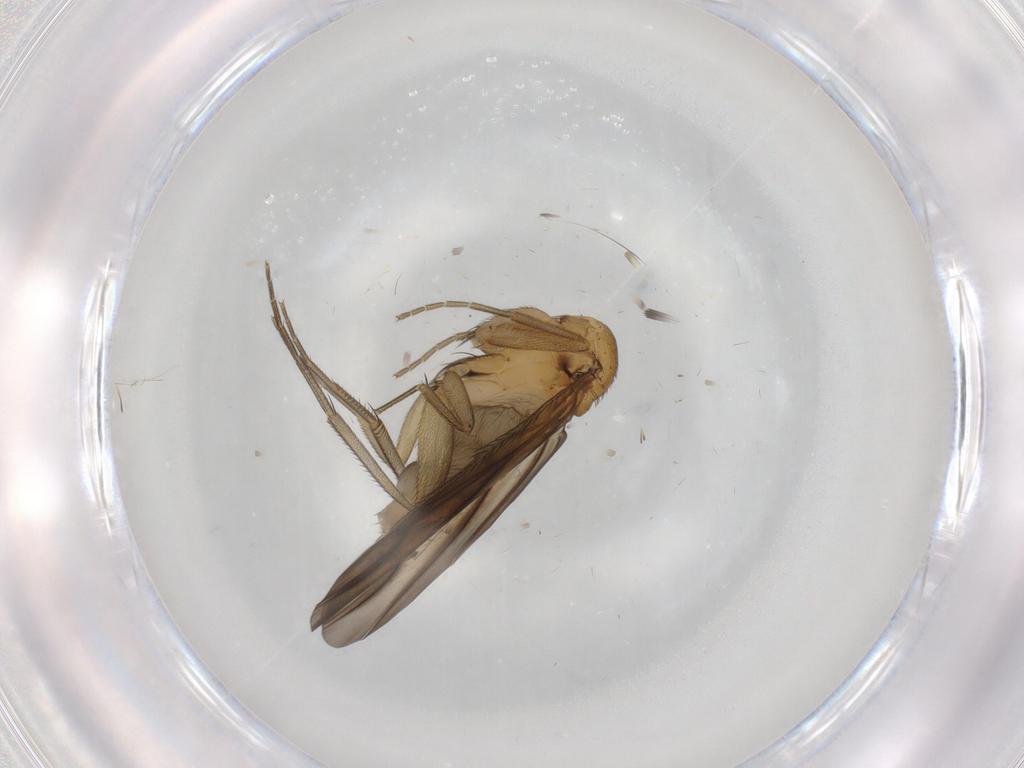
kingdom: Animalia
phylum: Arthropoda
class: Insecta
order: Diptera
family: Phoridae
